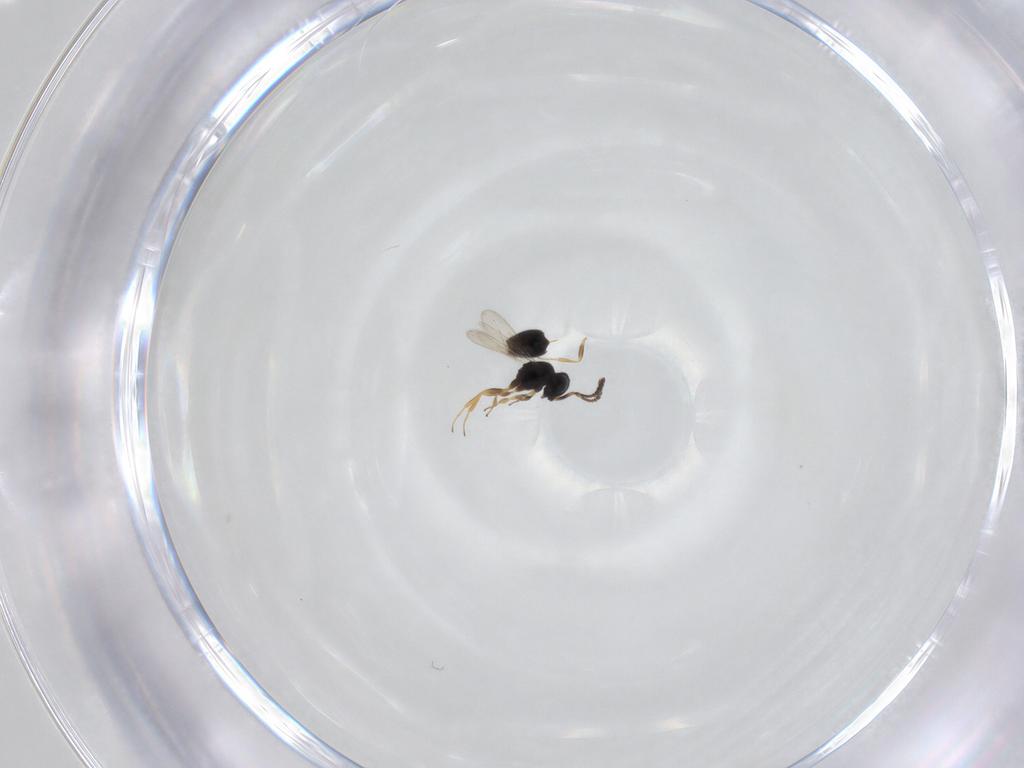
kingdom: Animalia
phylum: Arthropoda
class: Insecta
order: Hymenoptera
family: Scelionidae
